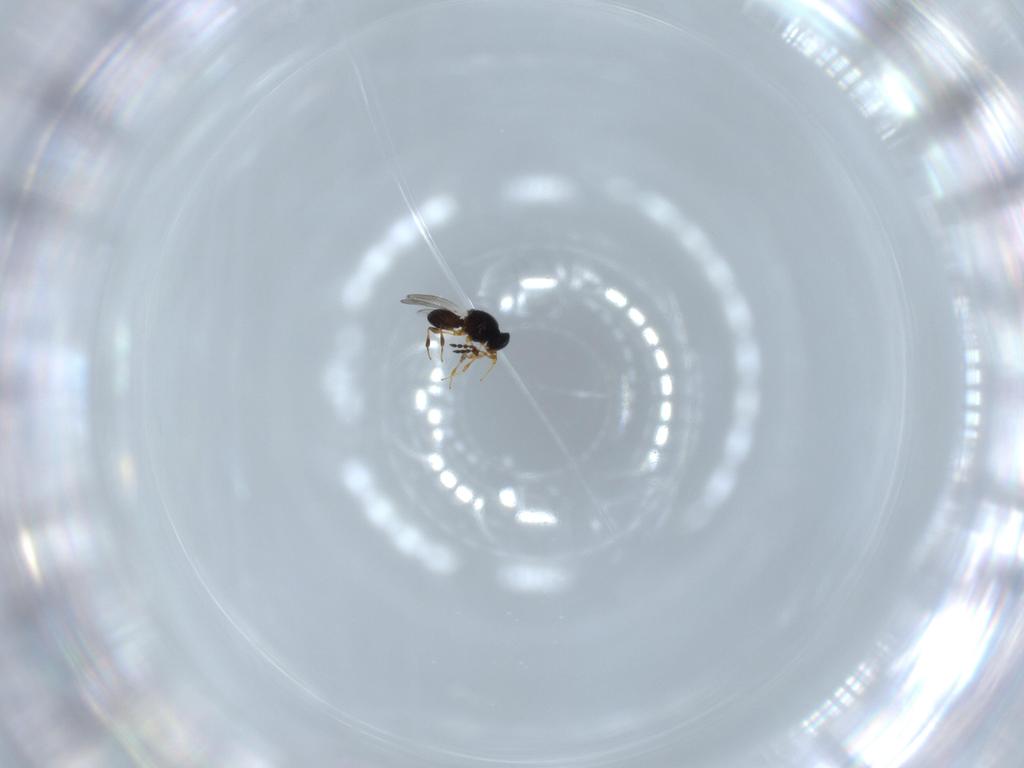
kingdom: Animalia
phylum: Arthropoda
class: Insecta
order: Hymenoptera
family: Platygastridae
